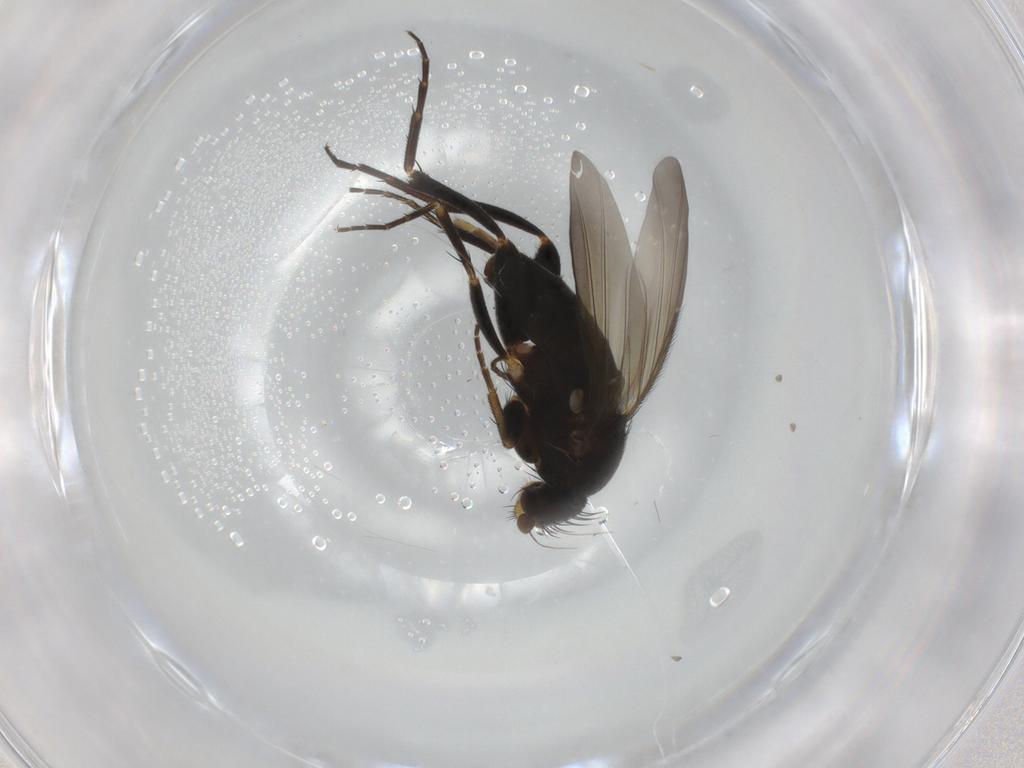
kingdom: Animalia
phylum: Arthropoda
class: Insecta
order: Diptera
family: Phoridae
